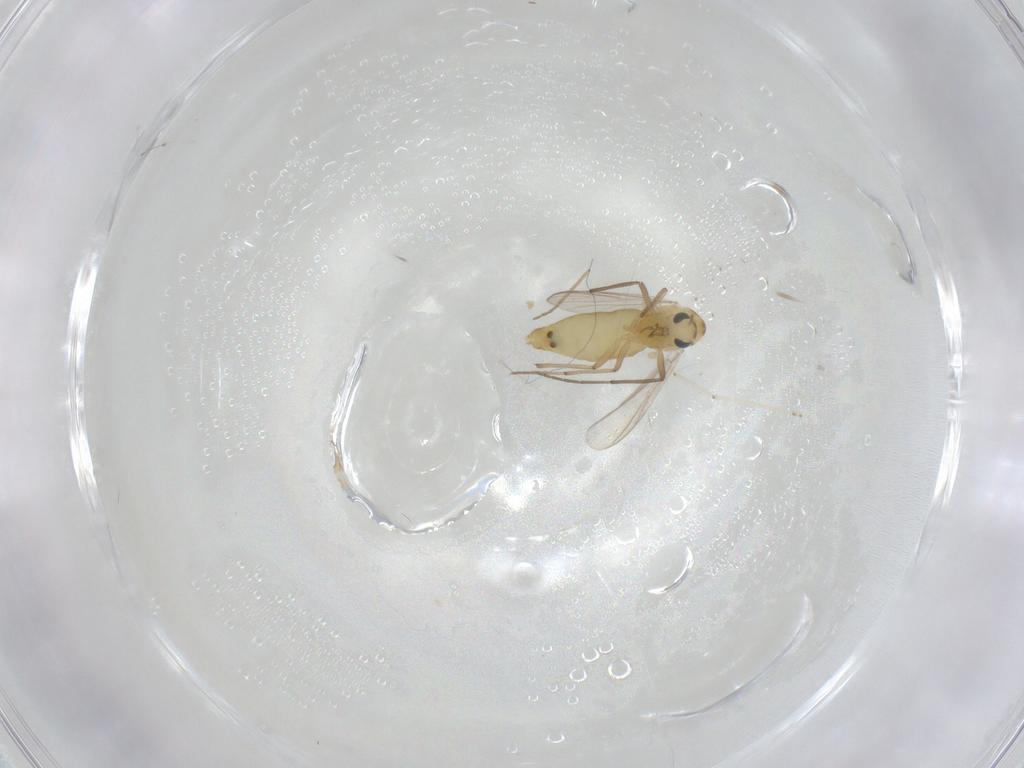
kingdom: Animalia
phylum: Arthropoda
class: Insecta
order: Diptera
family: Chironomidae
